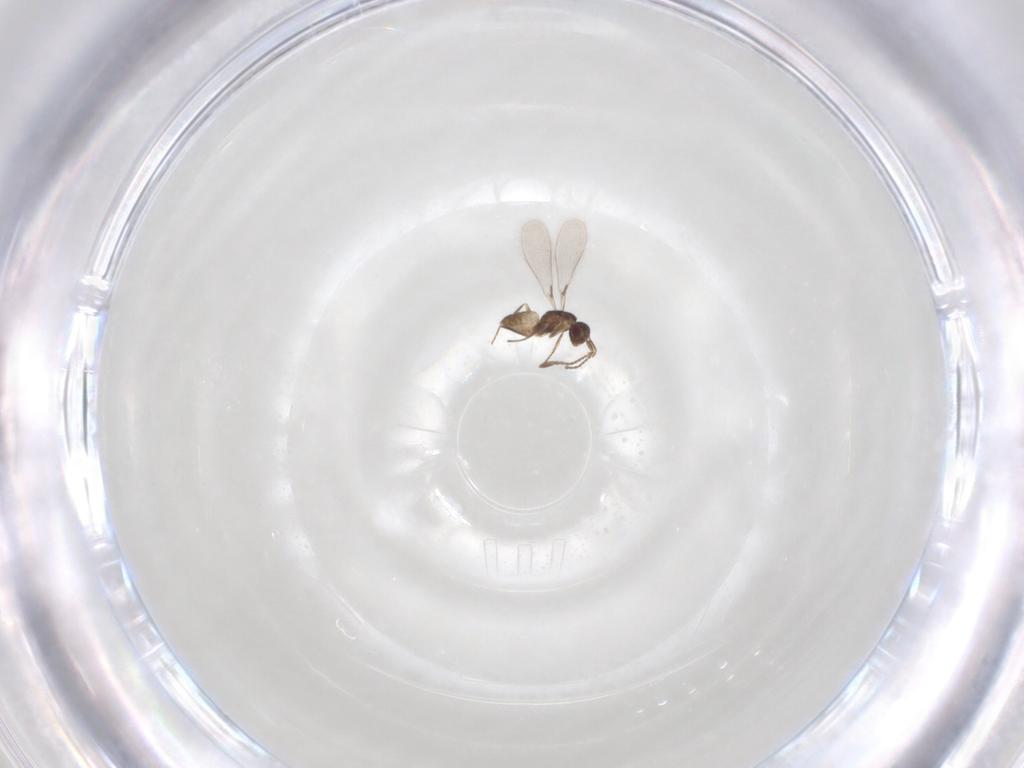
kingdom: Animalia
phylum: Arthropoda
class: Insecta
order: Hymenoptera
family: Mymaridae
